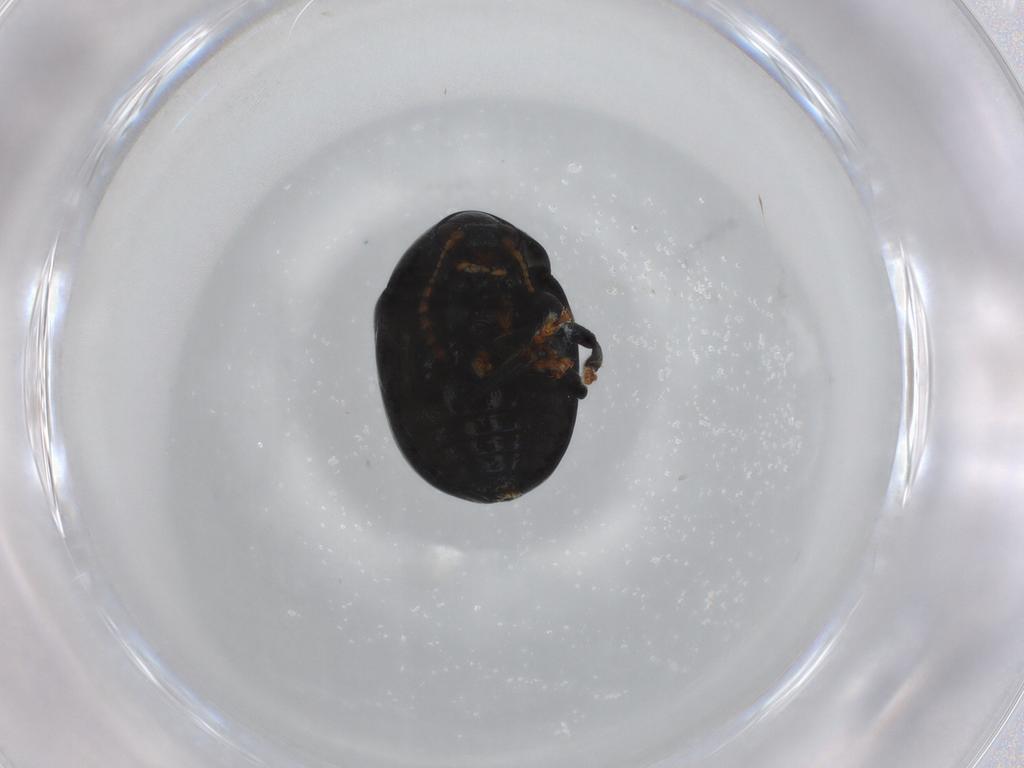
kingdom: Animalia
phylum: Arthropoda
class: Insecta
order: Coleoptera
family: Chrysomelidae
